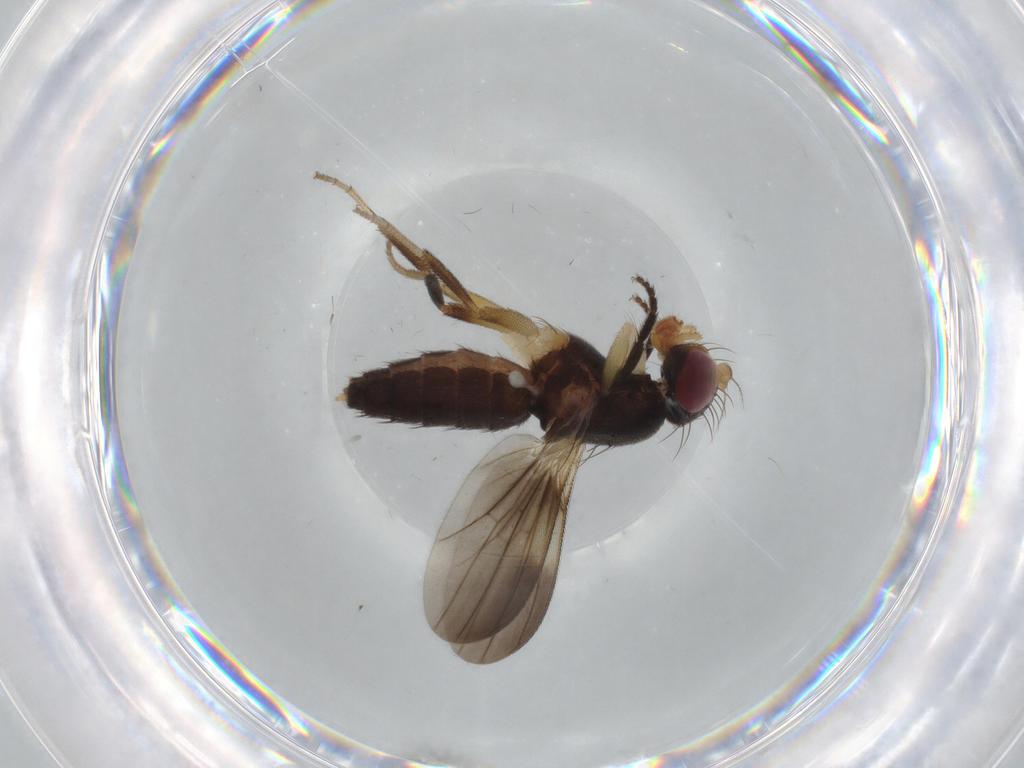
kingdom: Animalia
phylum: Arthropoda
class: Insecta
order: Diptera
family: Clusiidae
